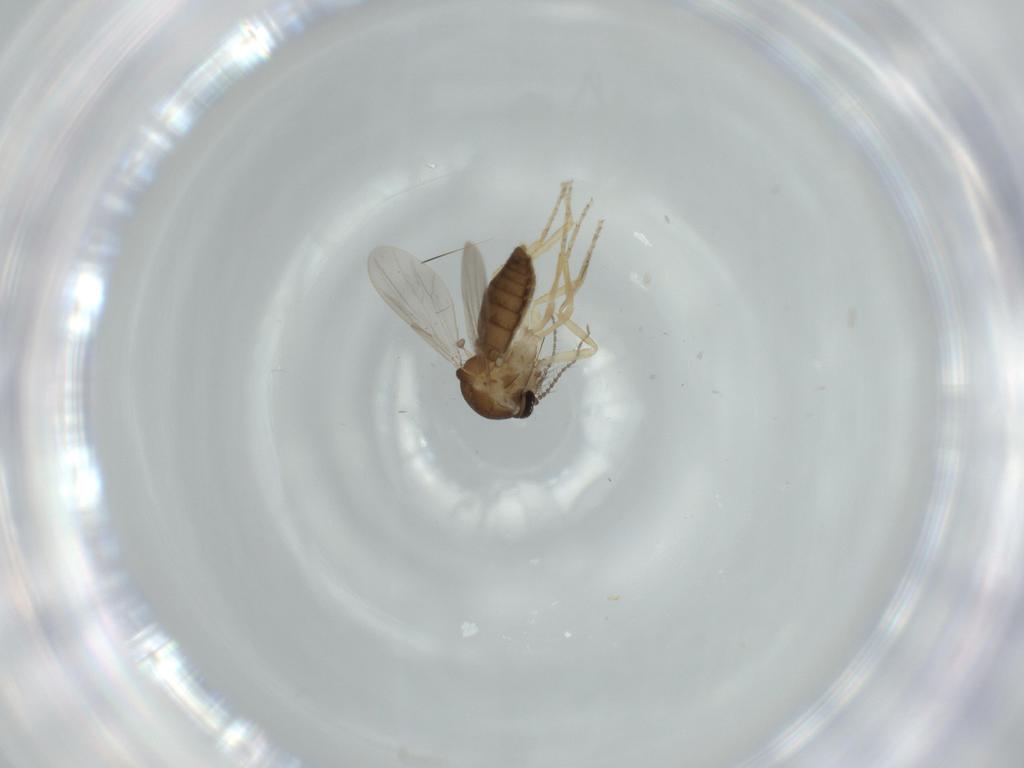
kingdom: Animalia
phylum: Arthropoda
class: Insecta
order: Diptera
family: Ceratopogonidae
